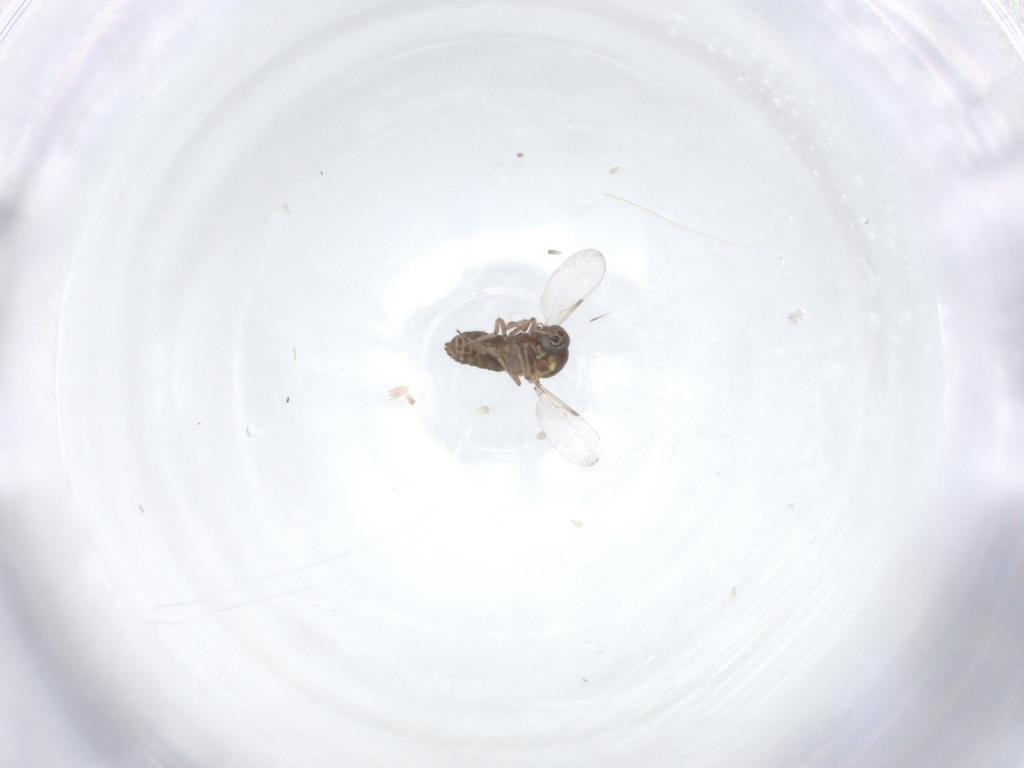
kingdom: Animalia
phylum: Arthropoda
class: Insecta
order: Diptera
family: Ceratopogonidae
